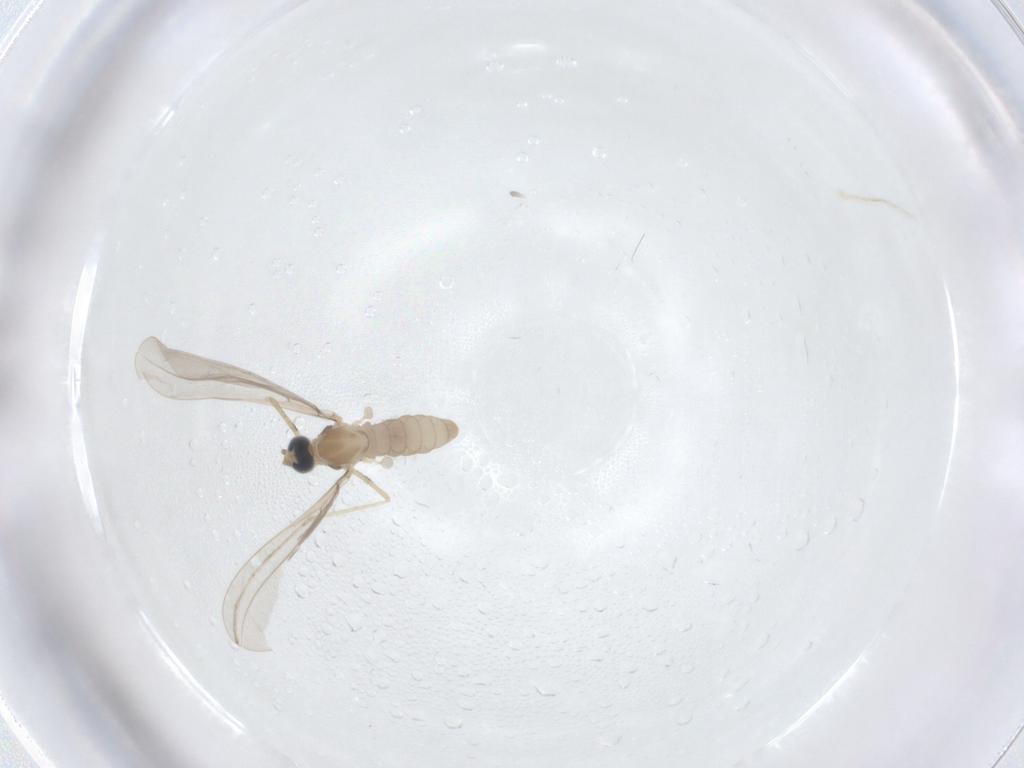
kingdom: Animalia
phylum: Arthropoda
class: Insecta
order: Diptera
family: Cecidomyiidae
